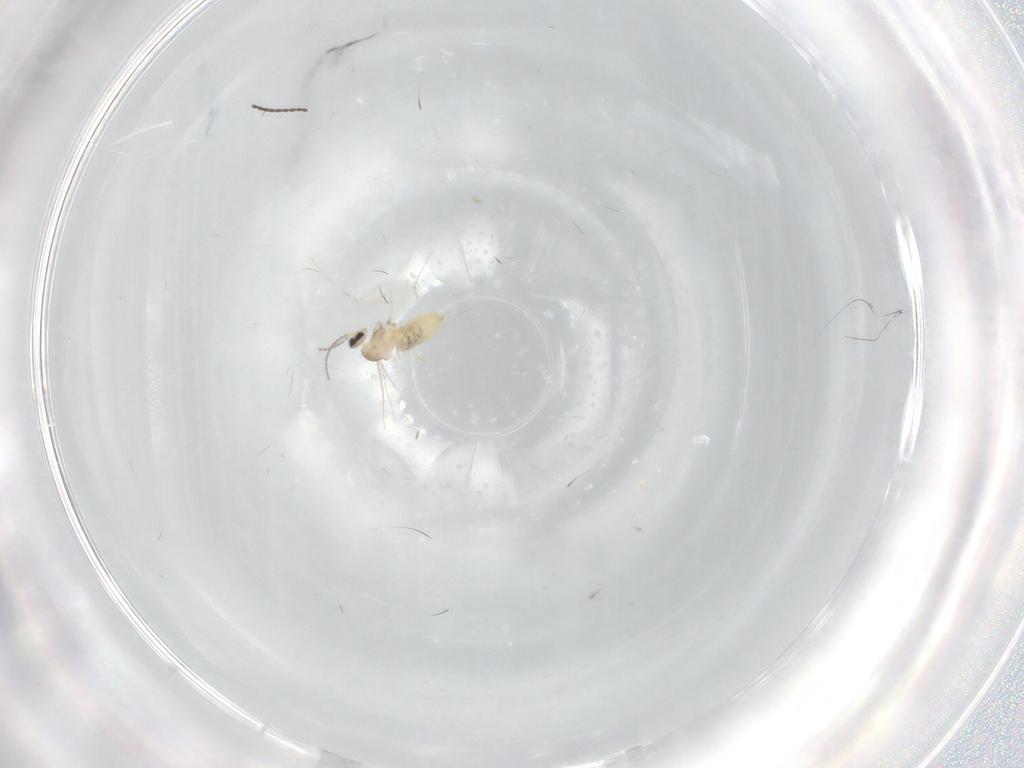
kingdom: Animalia
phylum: Arthropoda
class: Insecta
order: Diptera
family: Cecidomyiidae
